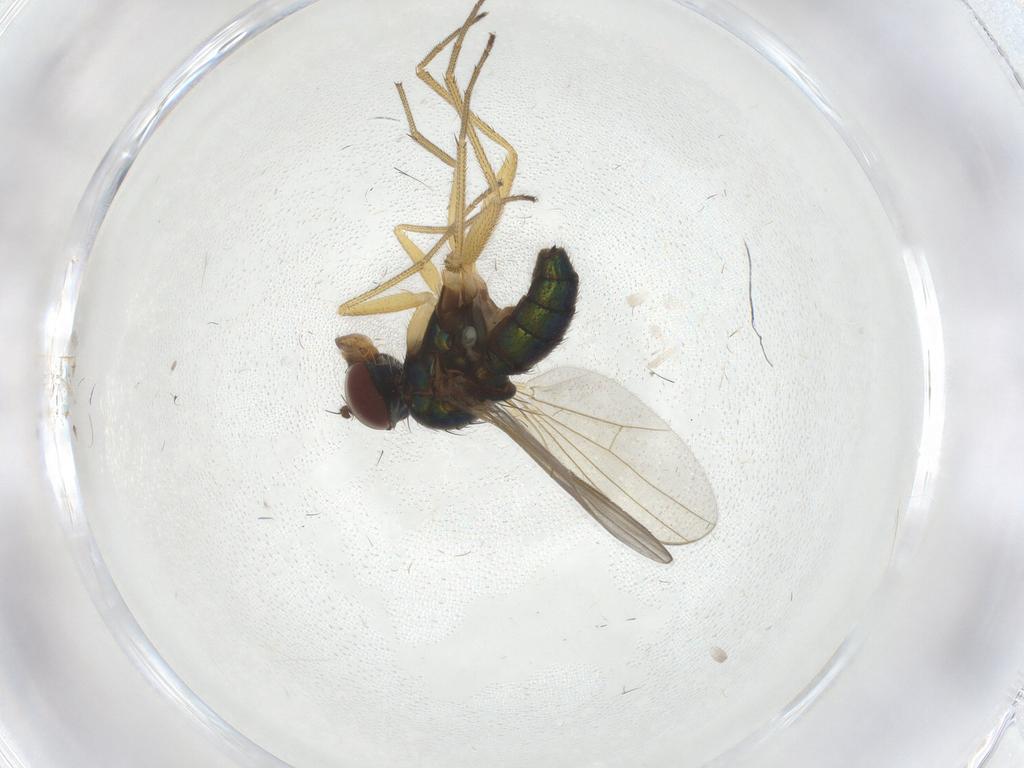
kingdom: Animalia
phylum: Arthropoda
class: Insecta
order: Diptera
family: Dolichopodidae
